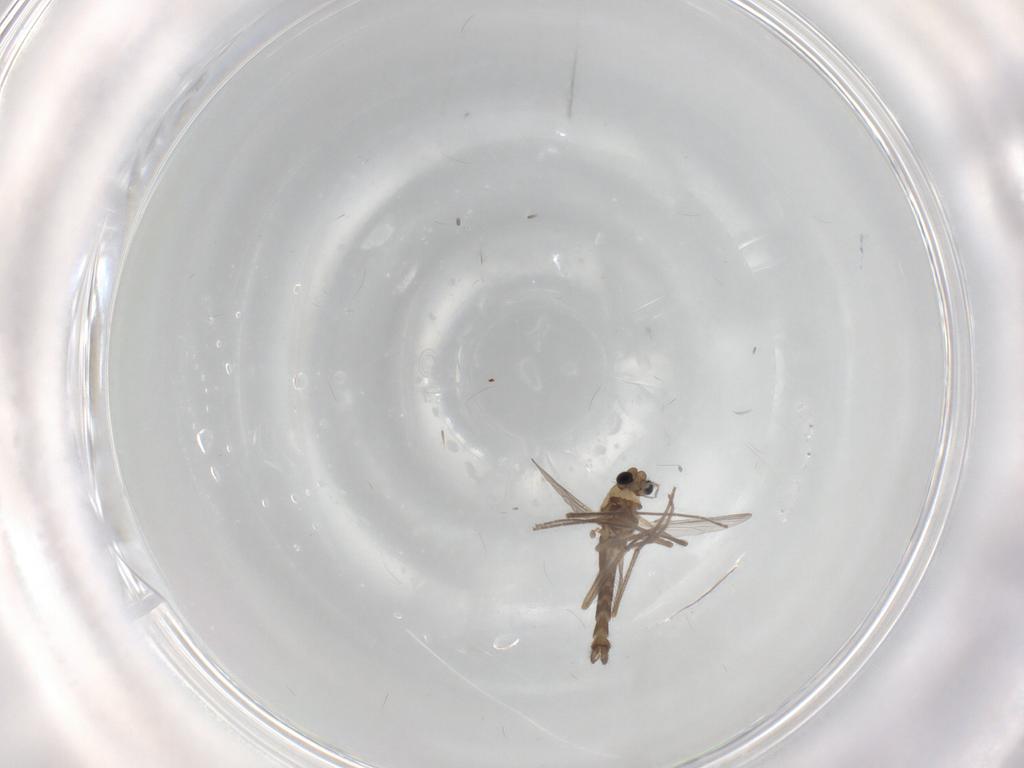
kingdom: Animalia
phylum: Arthropoda
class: Insecta
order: Diptera
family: Chironomidae
